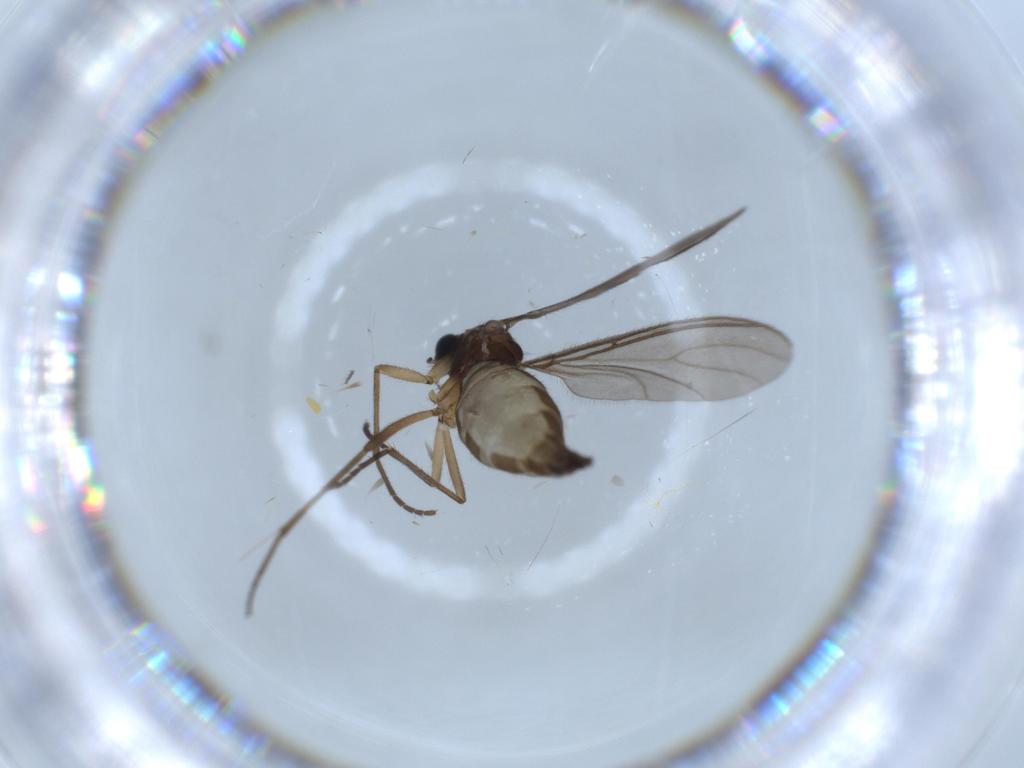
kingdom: Animalia
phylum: Arthropoda
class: Insecta
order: Diptera
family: Sciaridae
